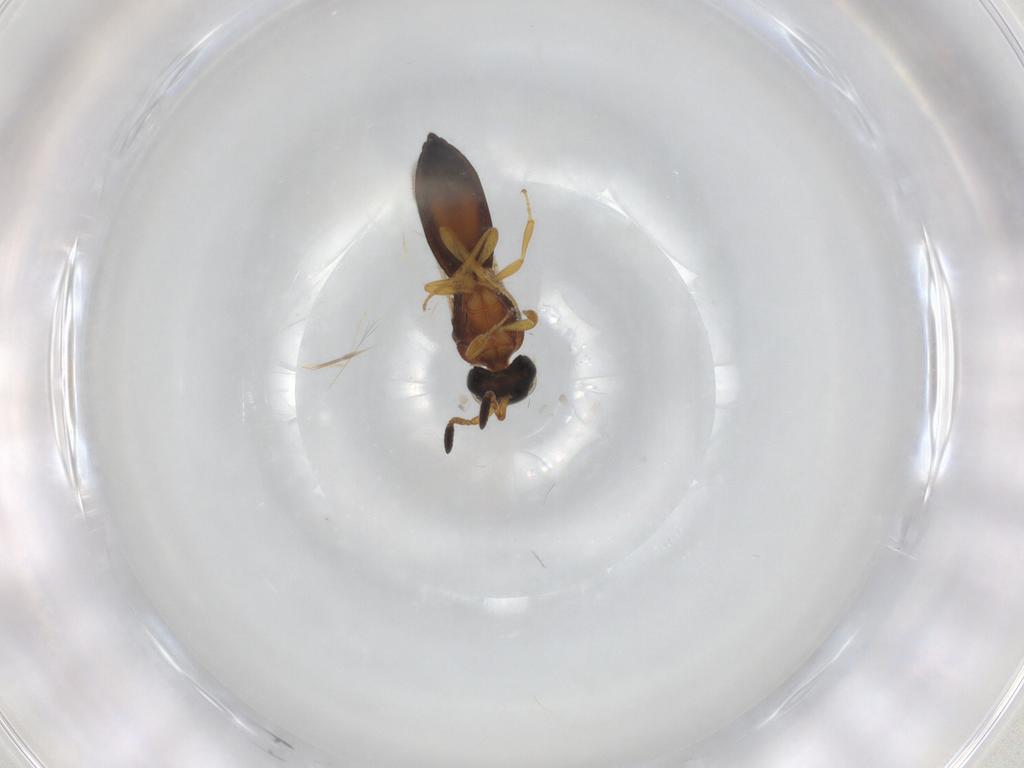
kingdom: Animalia
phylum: Arthropoda
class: Insecta
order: Hymenoptera
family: Scelionidae
